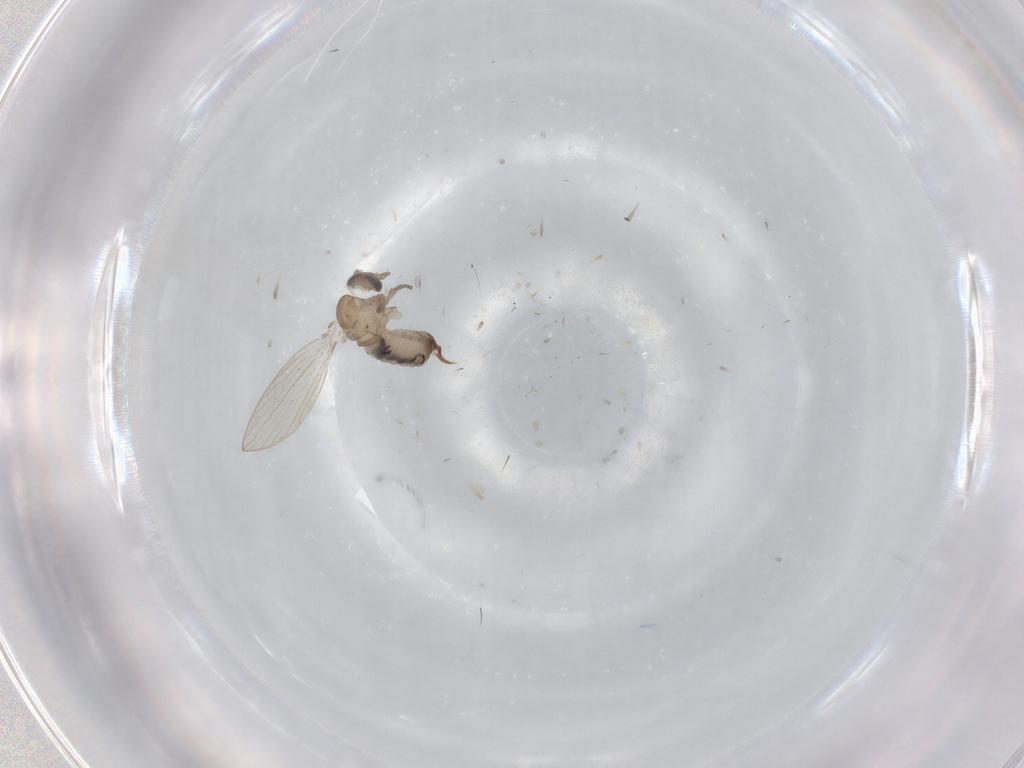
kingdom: Animalia
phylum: Arthropoda
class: Insecta
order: Diptera
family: Psychodidae
